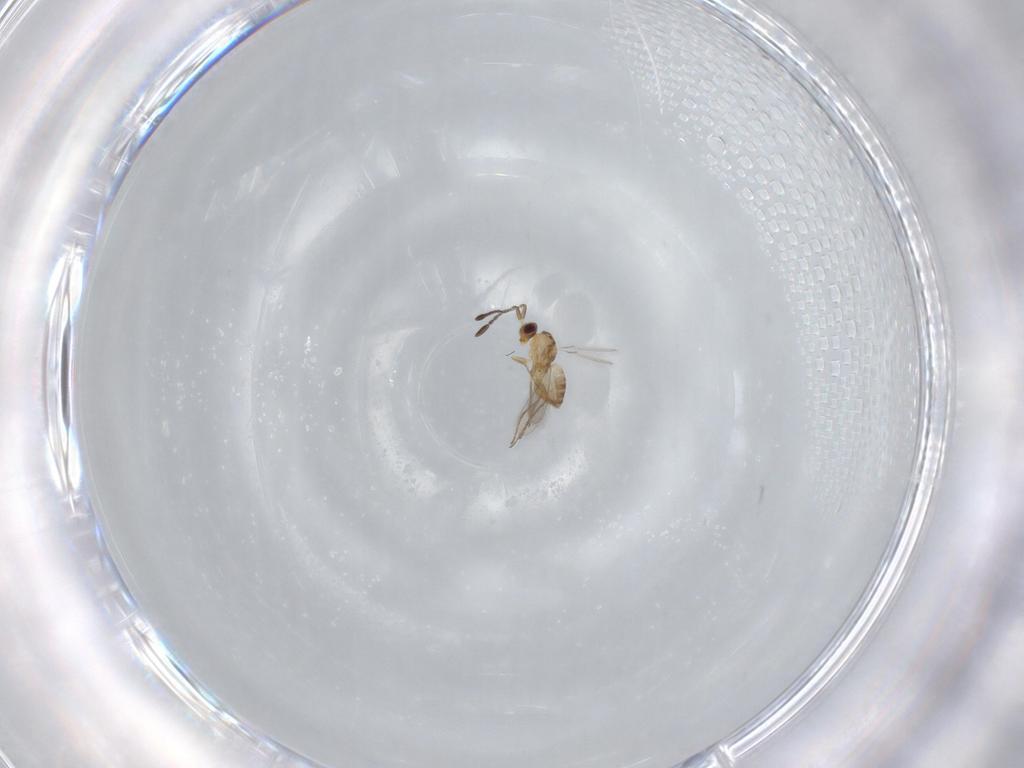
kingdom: Animalia
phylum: Arthropoda
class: Insecta
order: Hymenoptera
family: Mymaridae
